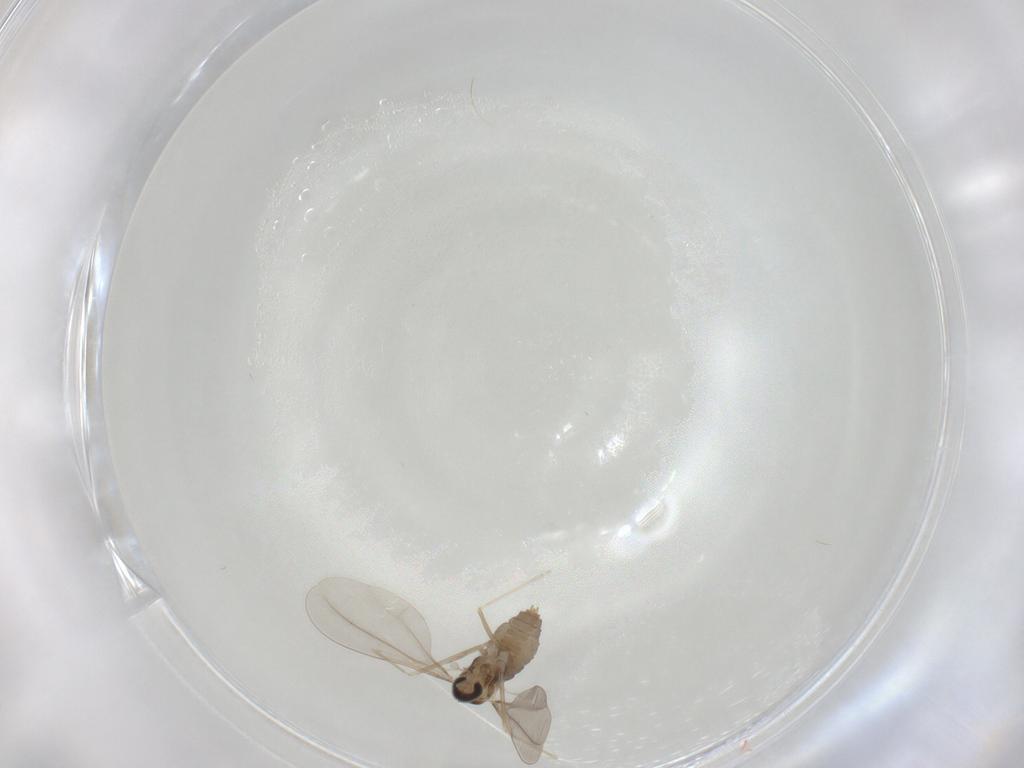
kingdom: Animalia
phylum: Arthropoda
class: Insecta
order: Diptera
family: Cecidomyiidae
